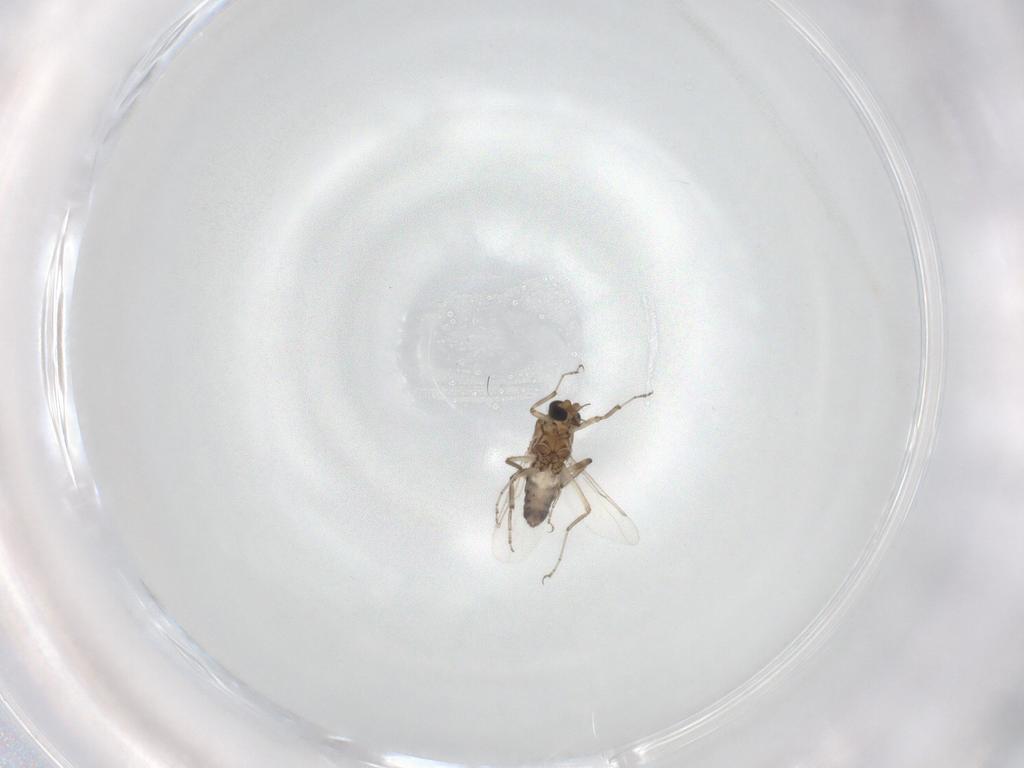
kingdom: Animalia
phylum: Arthropoda
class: Insecta
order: Diptera
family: Ceratopogonidae
